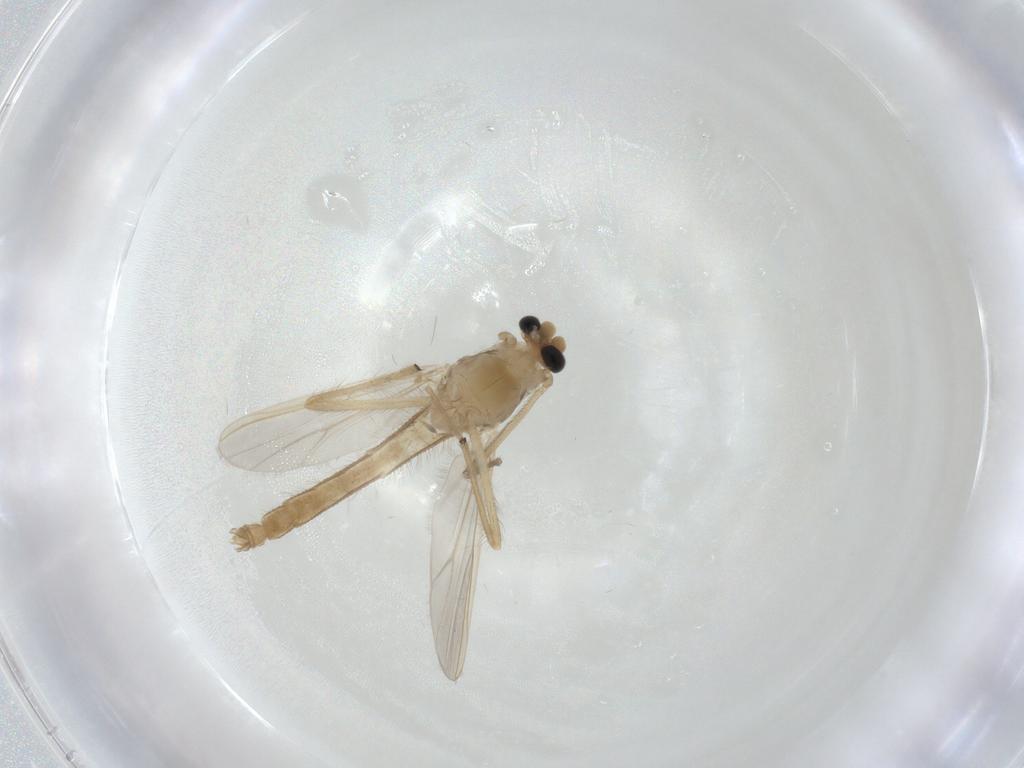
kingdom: Animalia
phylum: Arthropoda
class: Insecta
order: Diptera
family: Chironomidae
